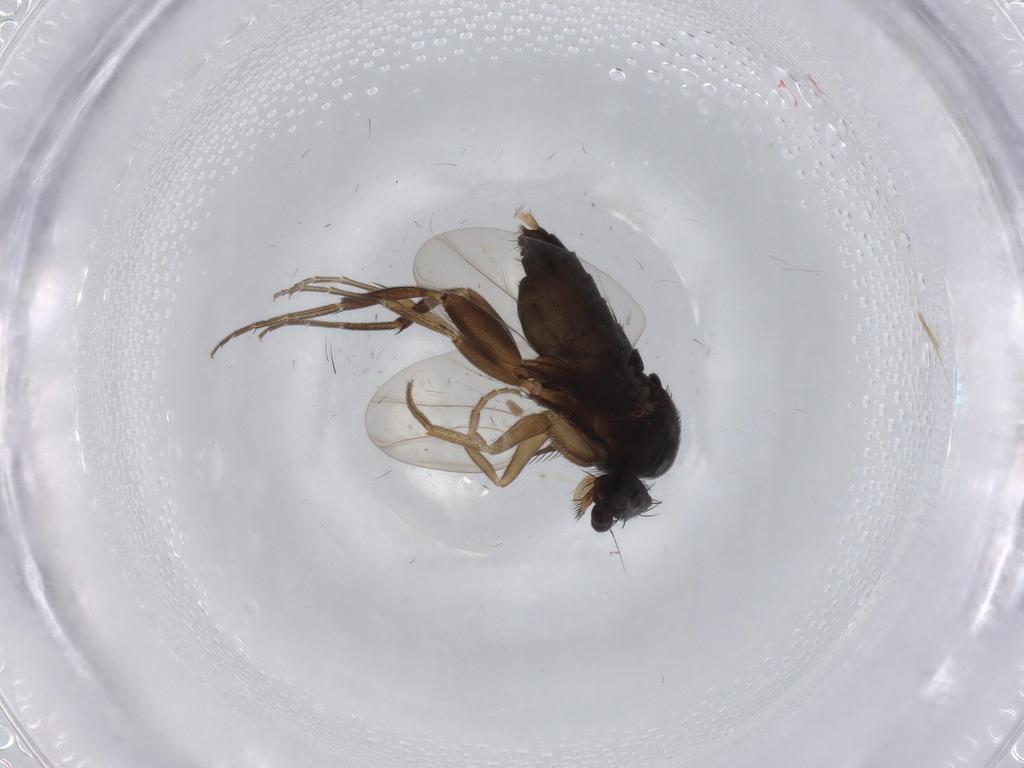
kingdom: Animalia
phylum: Arthropoda
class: Insecta
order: Diptera
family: Phoridae
